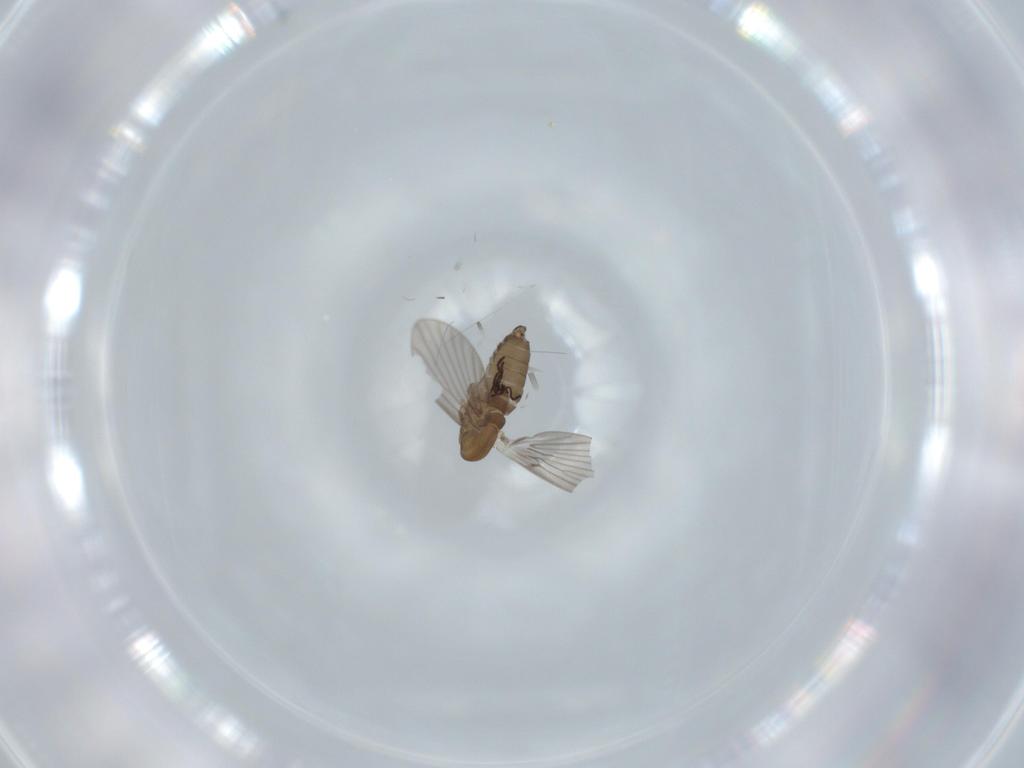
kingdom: Animalia
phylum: Arthropoda
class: Insecta
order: Diptera
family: Psychodidae
